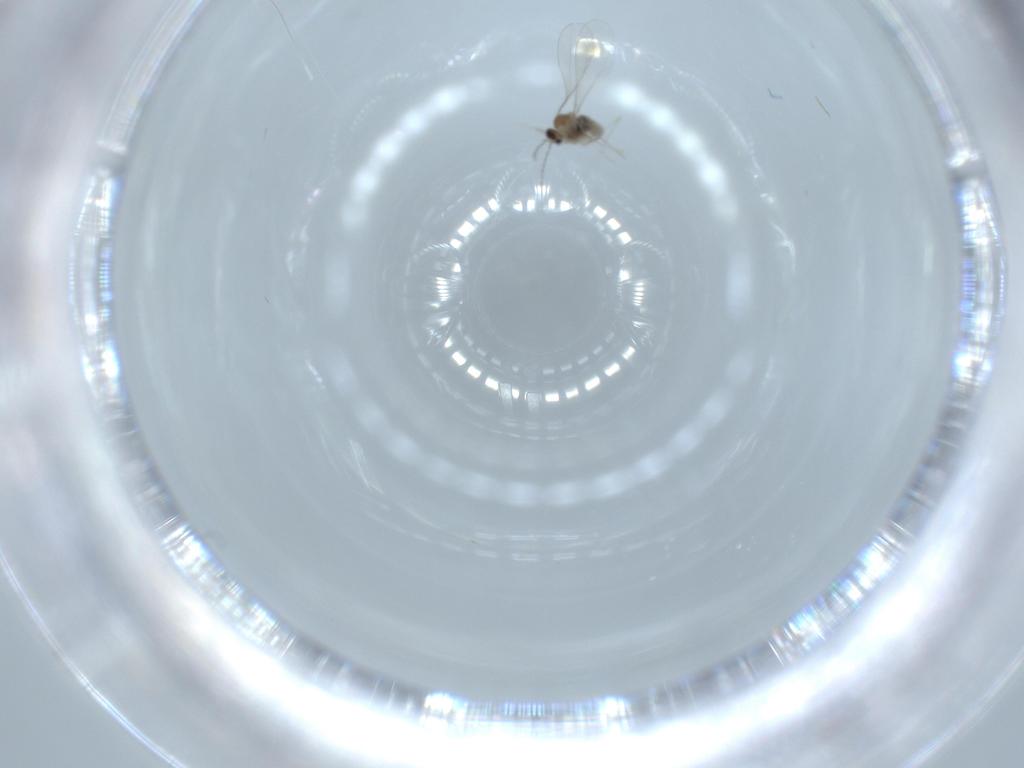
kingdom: Animalia
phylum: Arthropoda
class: Insecta
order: Diptera
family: Cecidomyiidae
